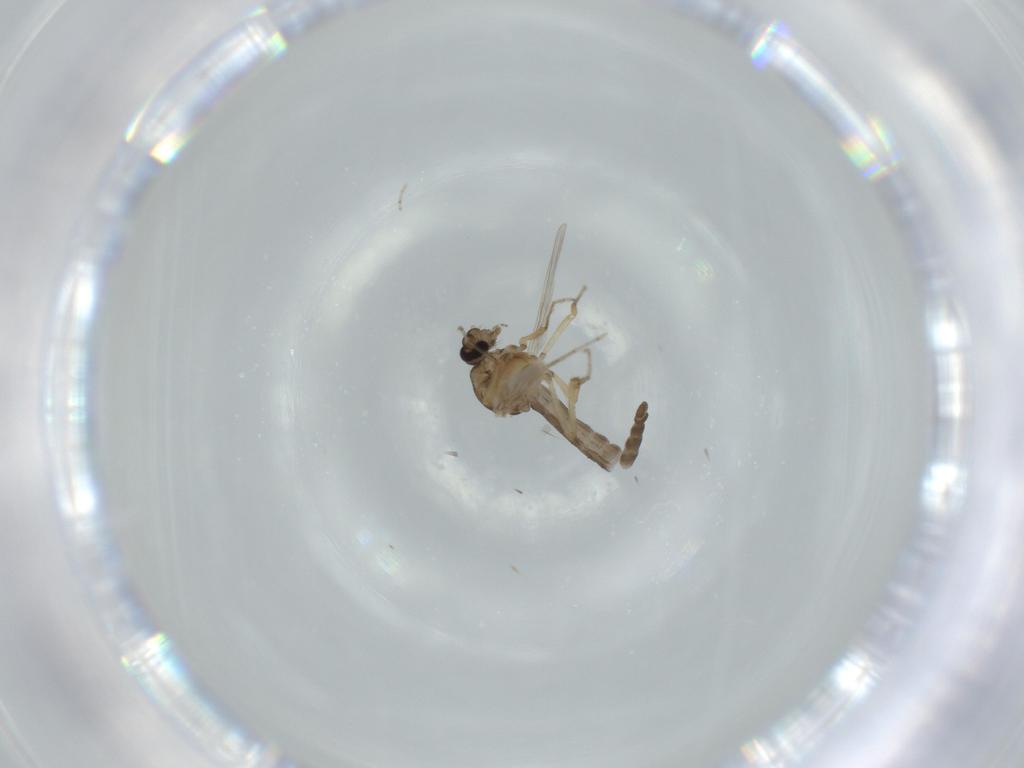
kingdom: Animalia
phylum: Arthropoda
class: Insecta
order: Diptera
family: Ceratopogonidae
